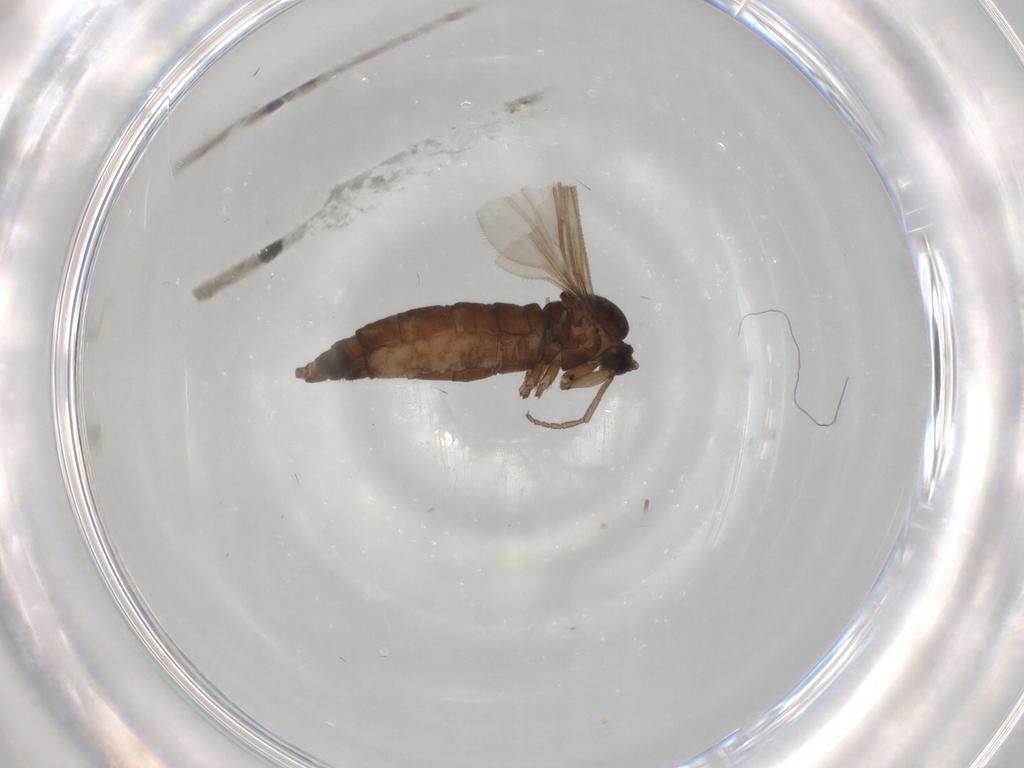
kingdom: Animalia
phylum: Arthropoda
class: Insecta
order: Diptera
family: Sciaridae
